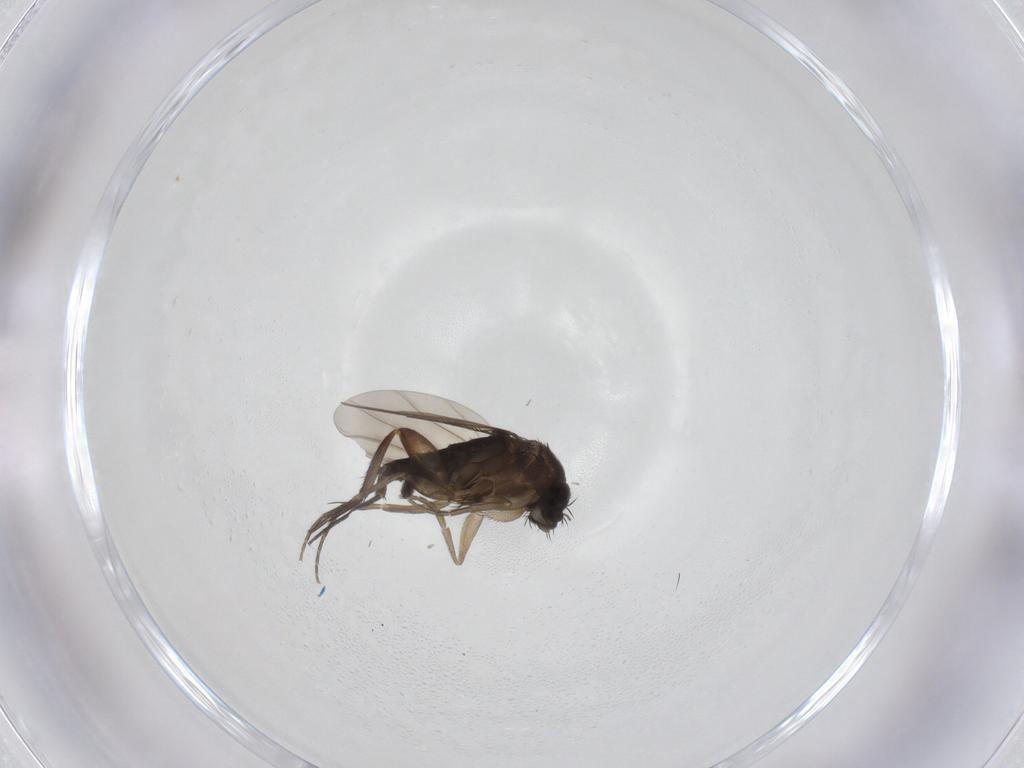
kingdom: Animalia
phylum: Arthropoda
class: Insecta
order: Diptera
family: Phoridae
